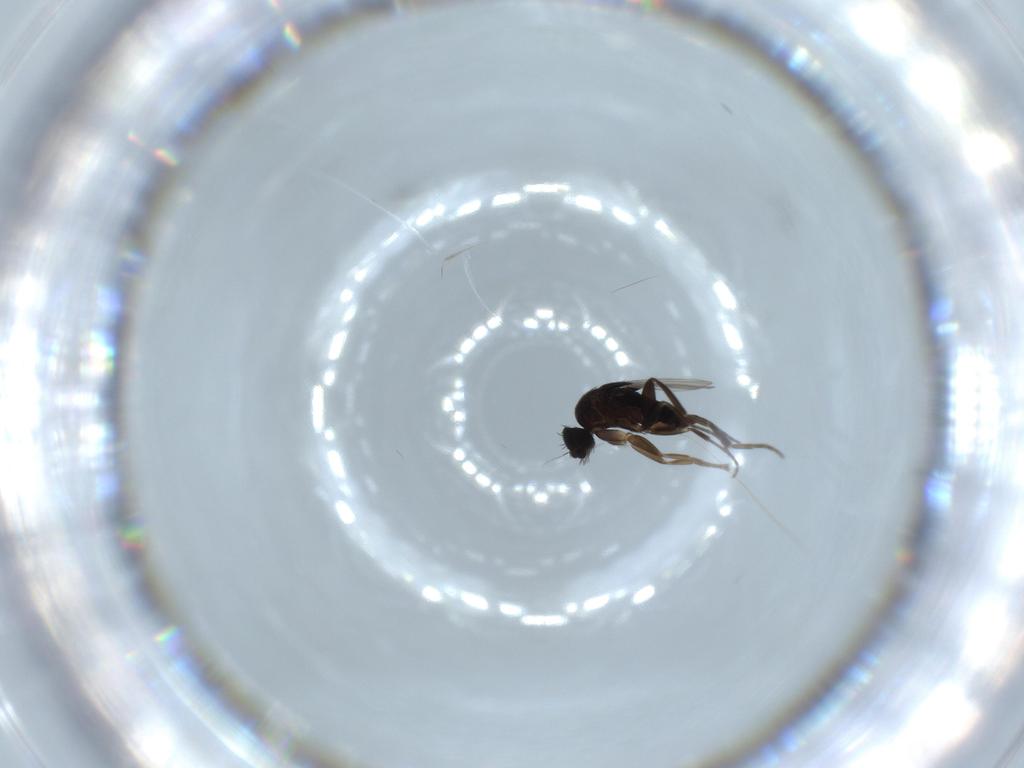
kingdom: Animalia
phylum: Arthropoda
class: Insecta
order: Diptera
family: Phoridae
